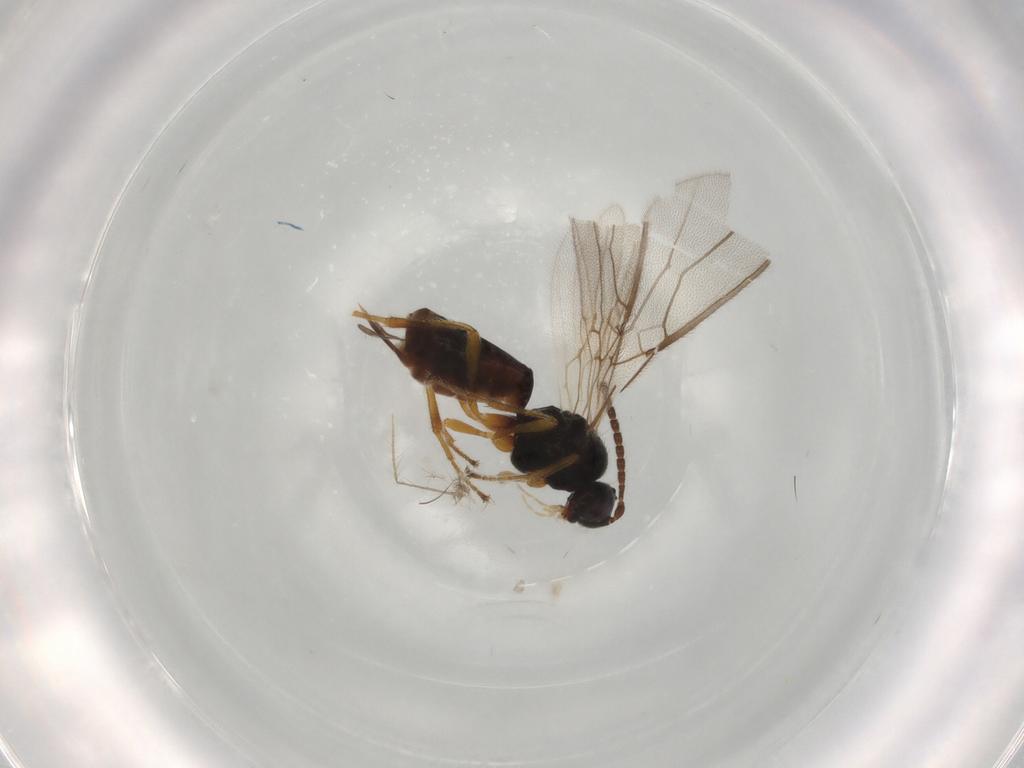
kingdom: Animalia
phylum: Arthropoda
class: Insecta
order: Hymenoptera
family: Braconidae
